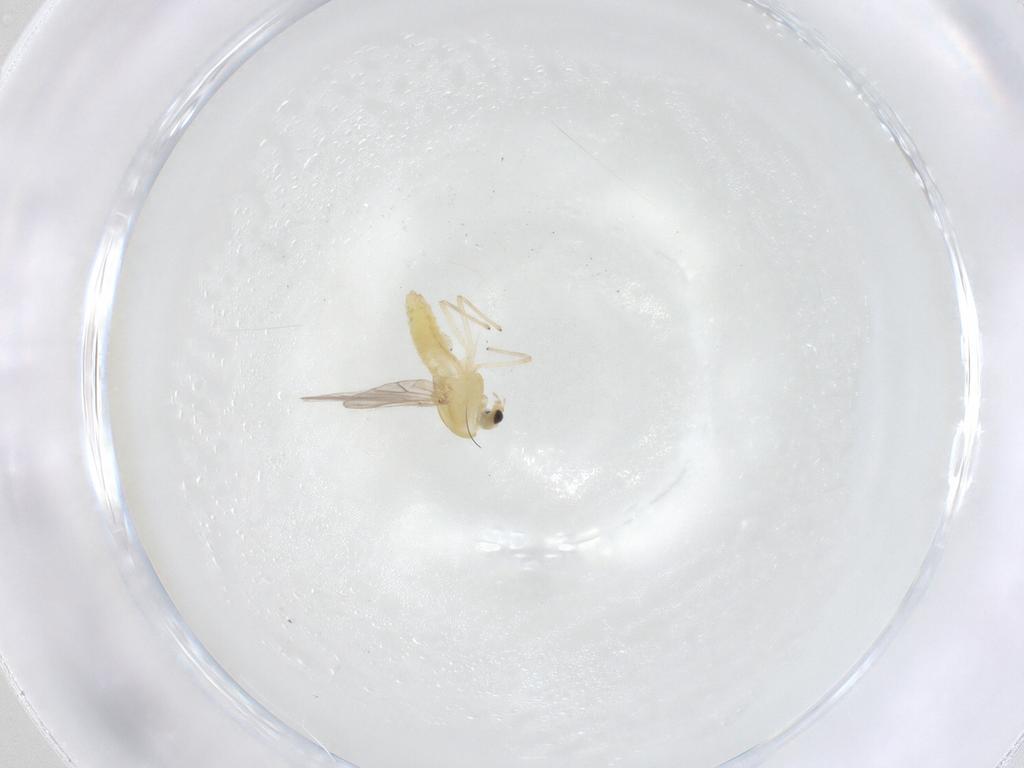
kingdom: Animalia
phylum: Arthropoda
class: Insecta
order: Diptera
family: Chironomidae
